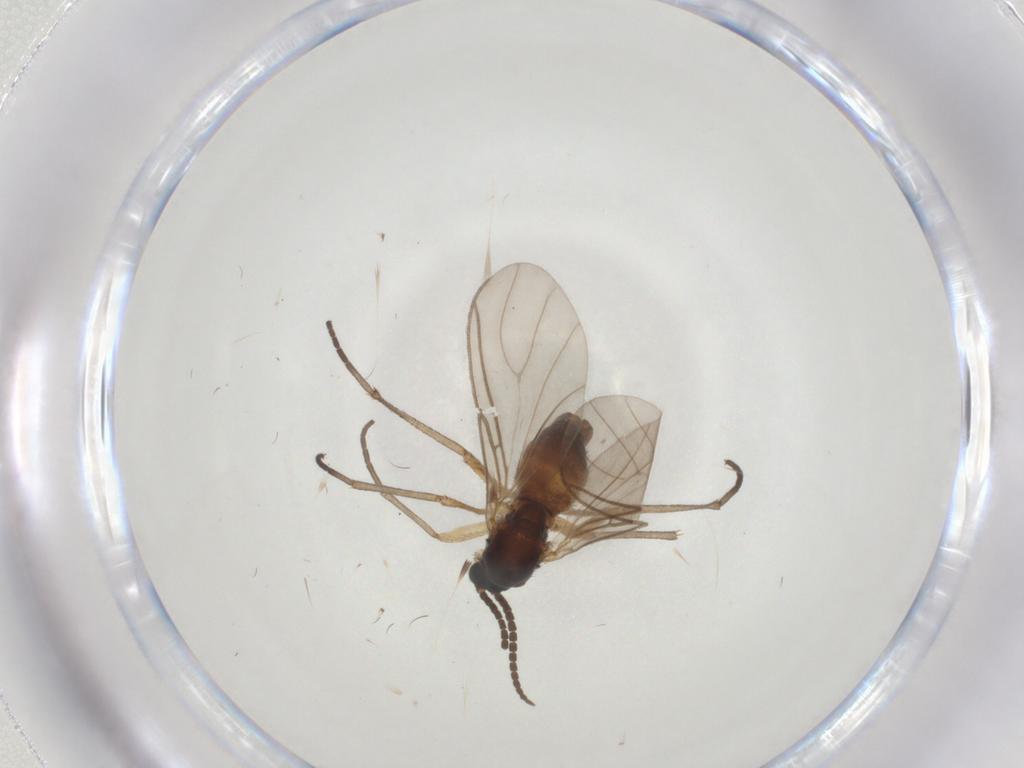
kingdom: Animalia
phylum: Arthropoda
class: Insecta
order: Diptera
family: Sciaridae
